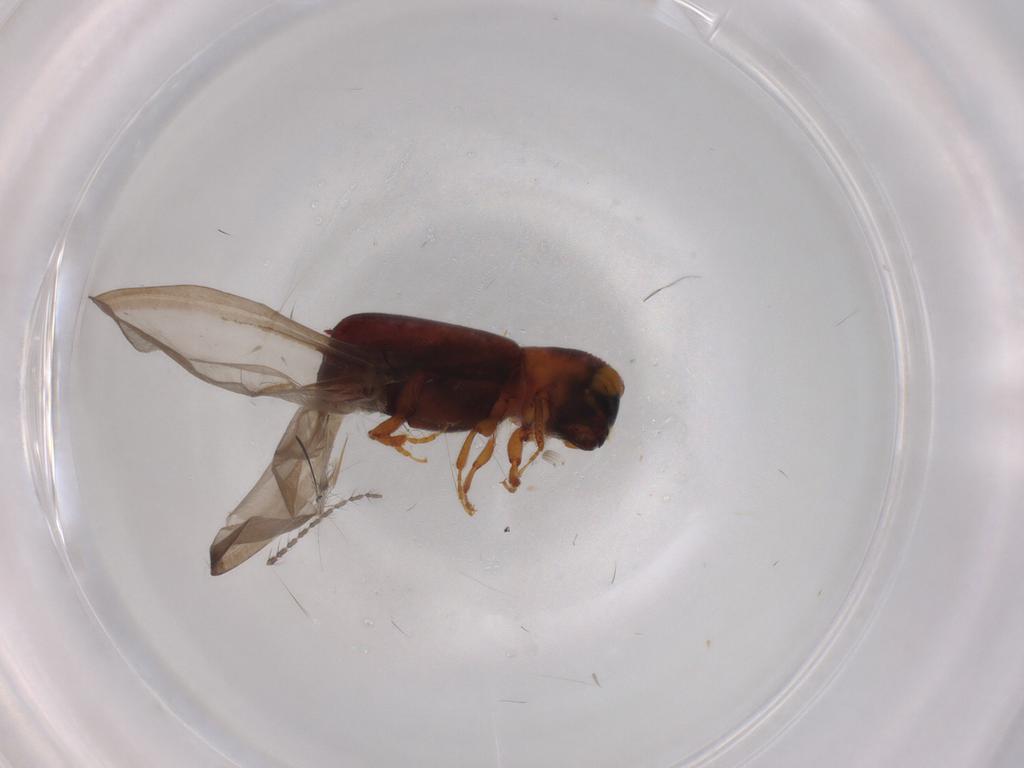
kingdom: Animalia
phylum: Arthropoda
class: Insecta
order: Coleoptera
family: Curculionidae
